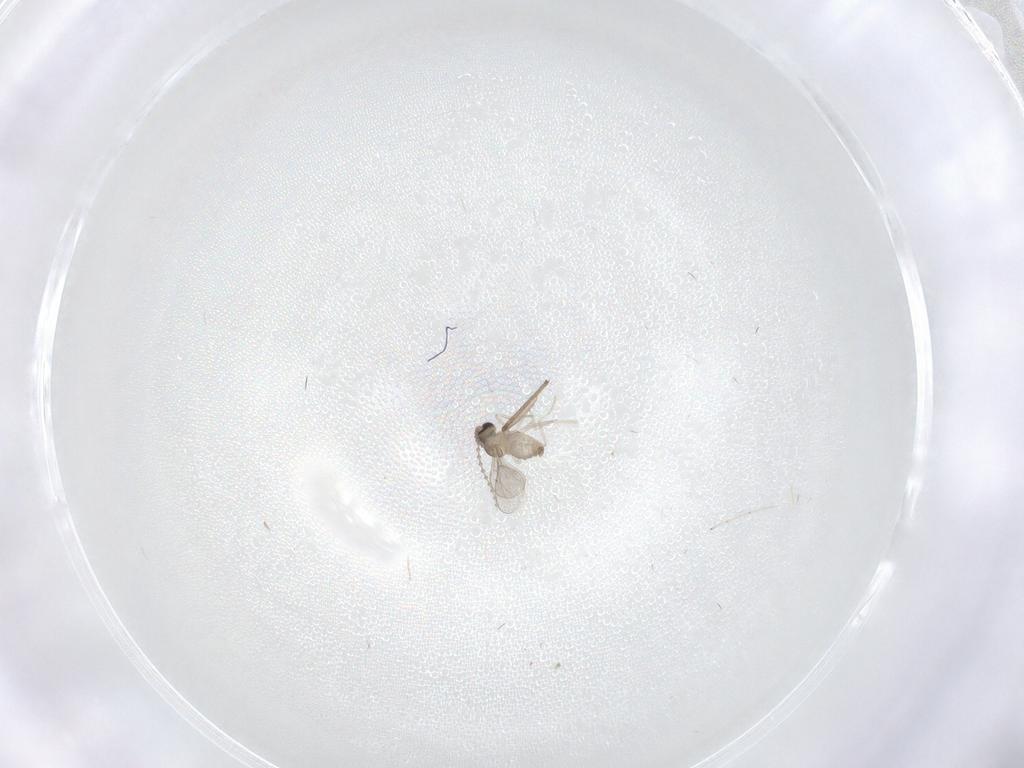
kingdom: Animalia
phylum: Arthropoda
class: Insecta
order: Diptera
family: Cecidomyiidae
